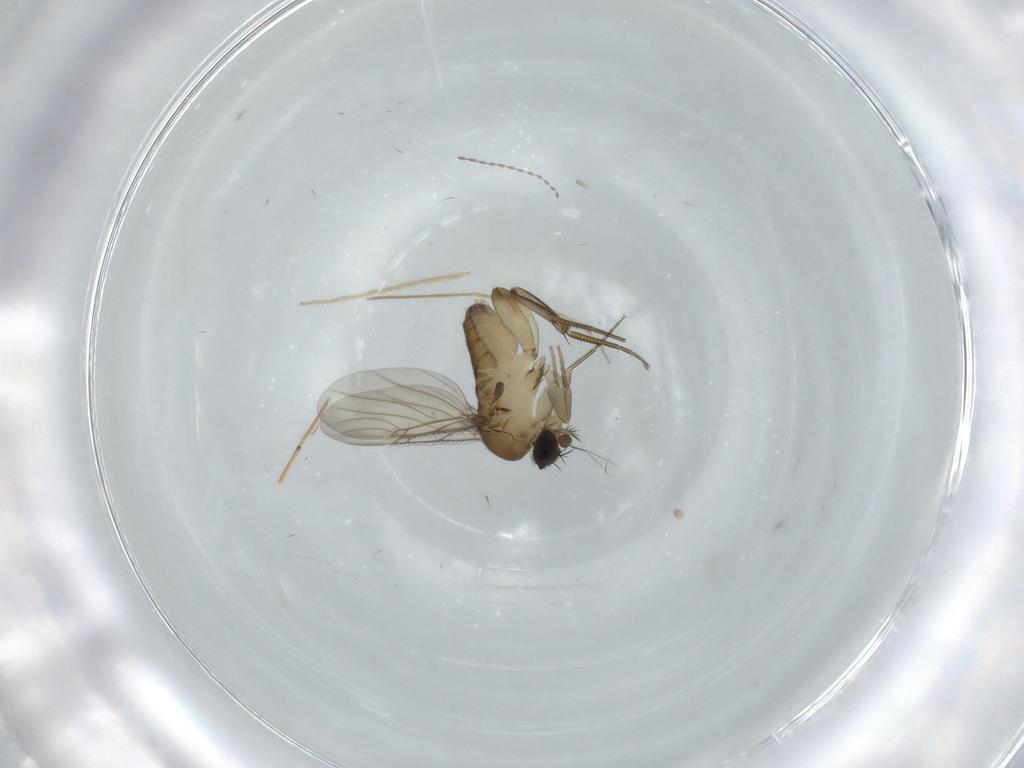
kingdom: Animalia
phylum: Arthropoda
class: Insecta
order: Diptera
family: Phoridae
